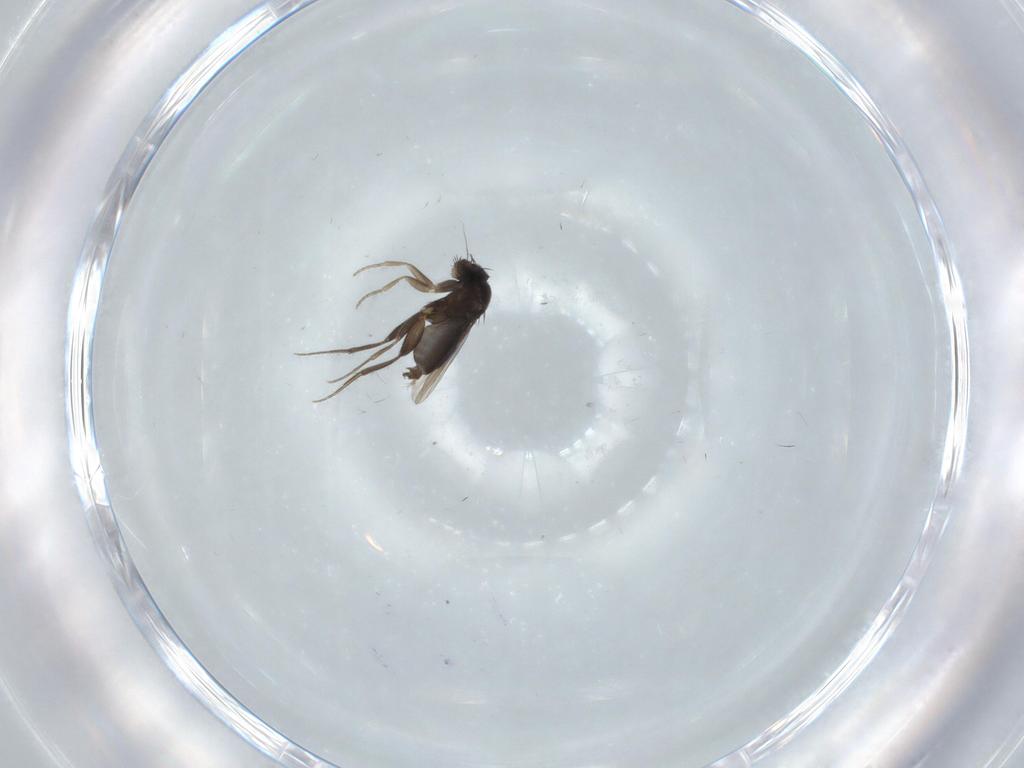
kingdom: Animalia
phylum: Arthropoda
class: Insecta
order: Diptera
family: Phoridae
